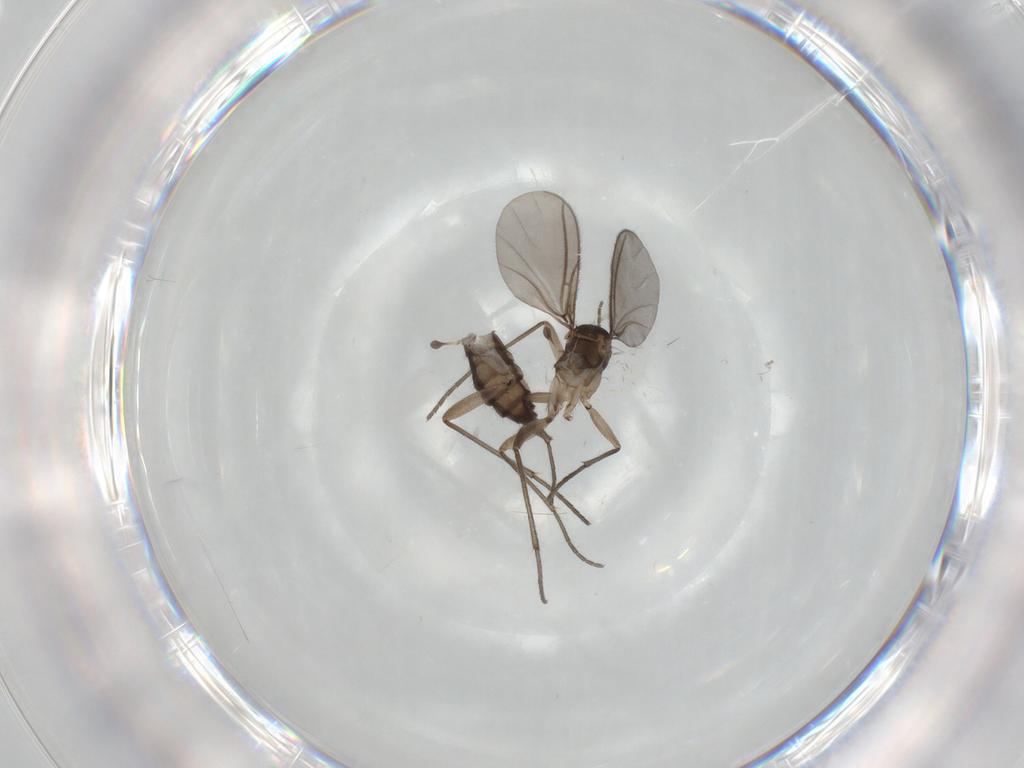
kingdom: Animalia
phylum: Arthropoda
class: Insecta
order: Diptera
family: Sciaridae
